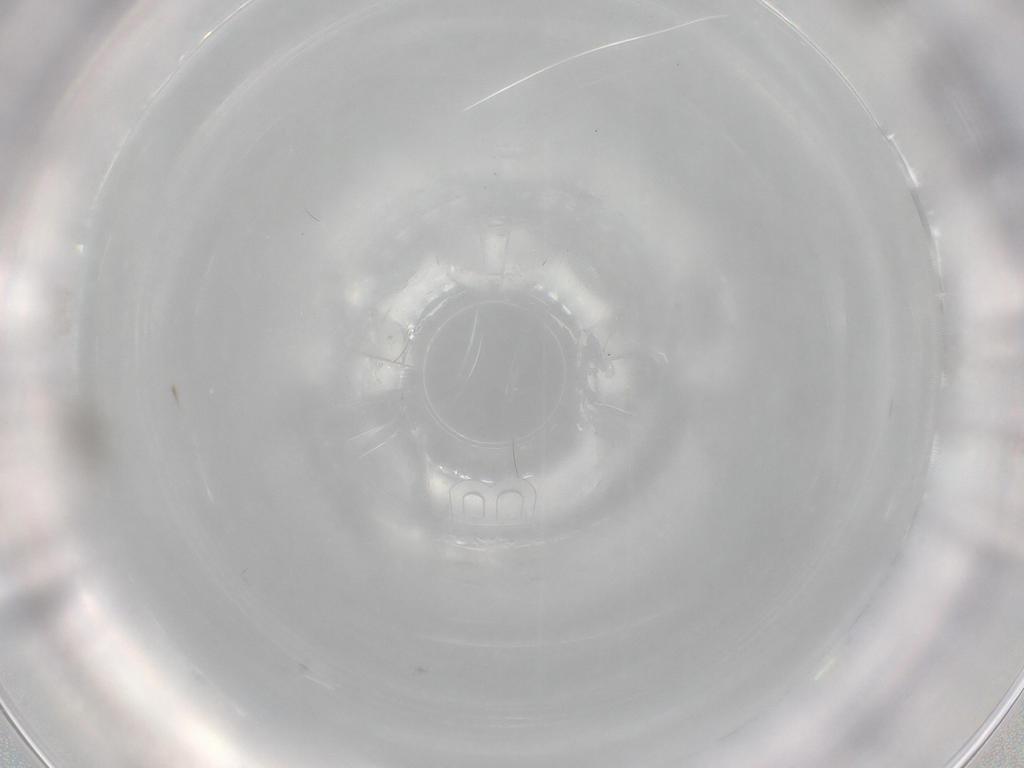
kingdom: Animalia
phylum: Arthropoda
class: Insecta
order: Diptera
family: Cecidomyiidae
